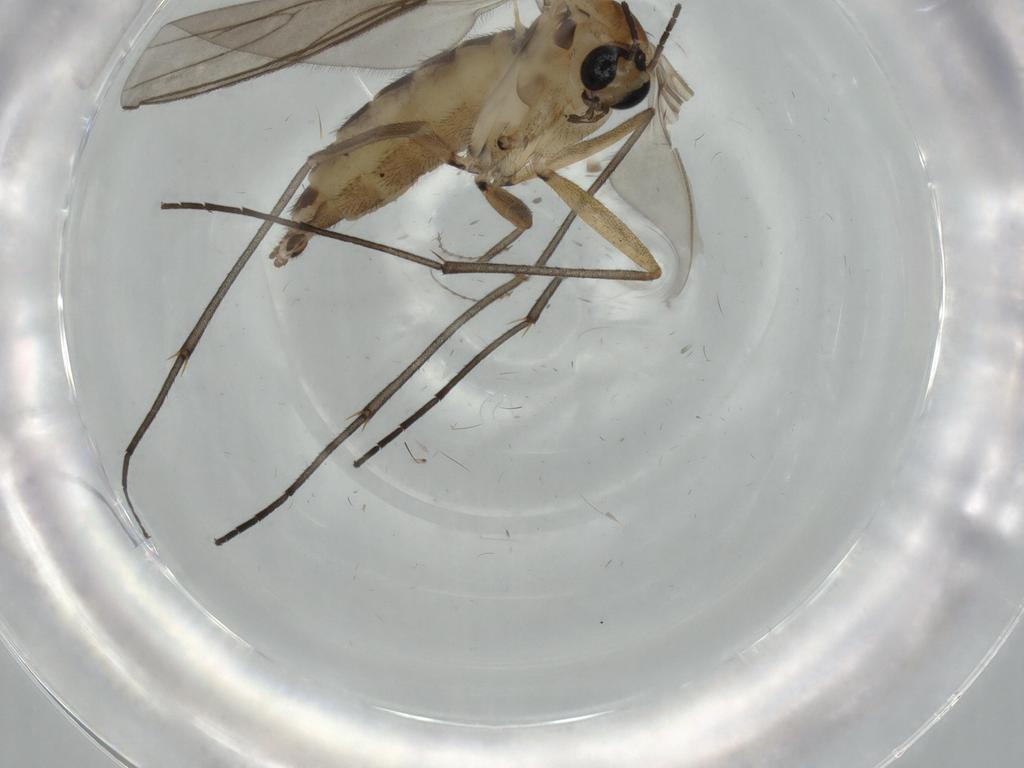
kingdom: Animalia
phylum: Arthropoda
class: Insecta
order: Diptera
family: Sciaridae
